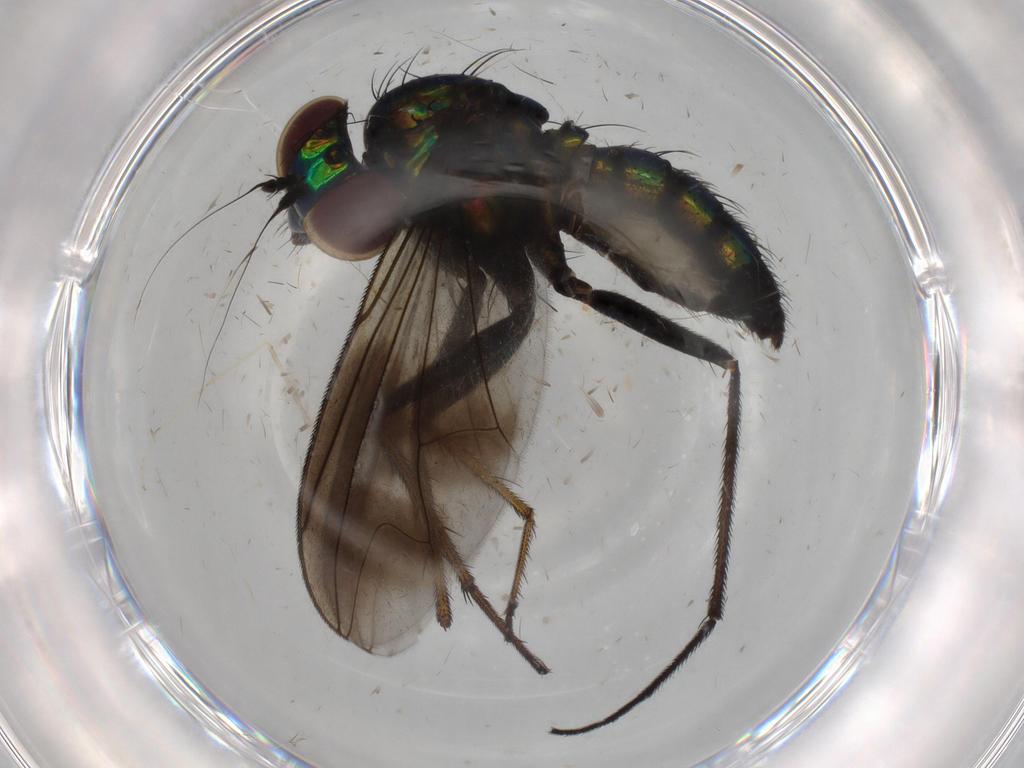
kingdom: Animalia
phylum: Arthropoda
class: Insecta
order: Diptera
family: Dolichopodidae
